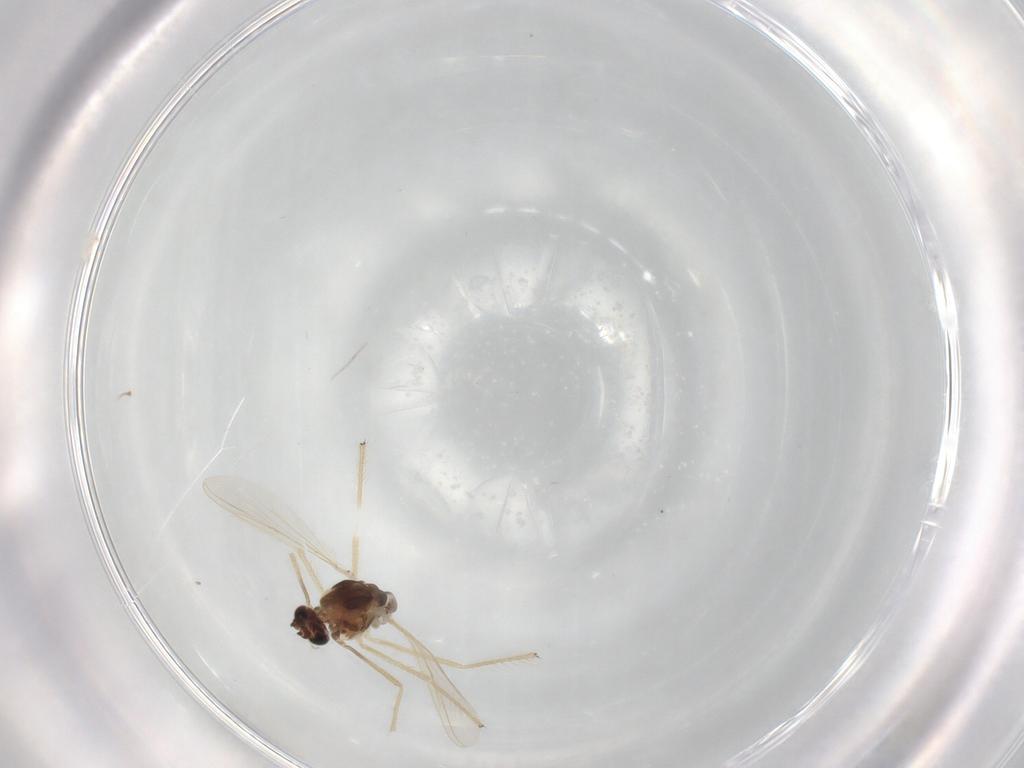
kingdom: Animalia
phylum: Arthropoda
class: Insecta
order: Diptera
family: Chironomidae
